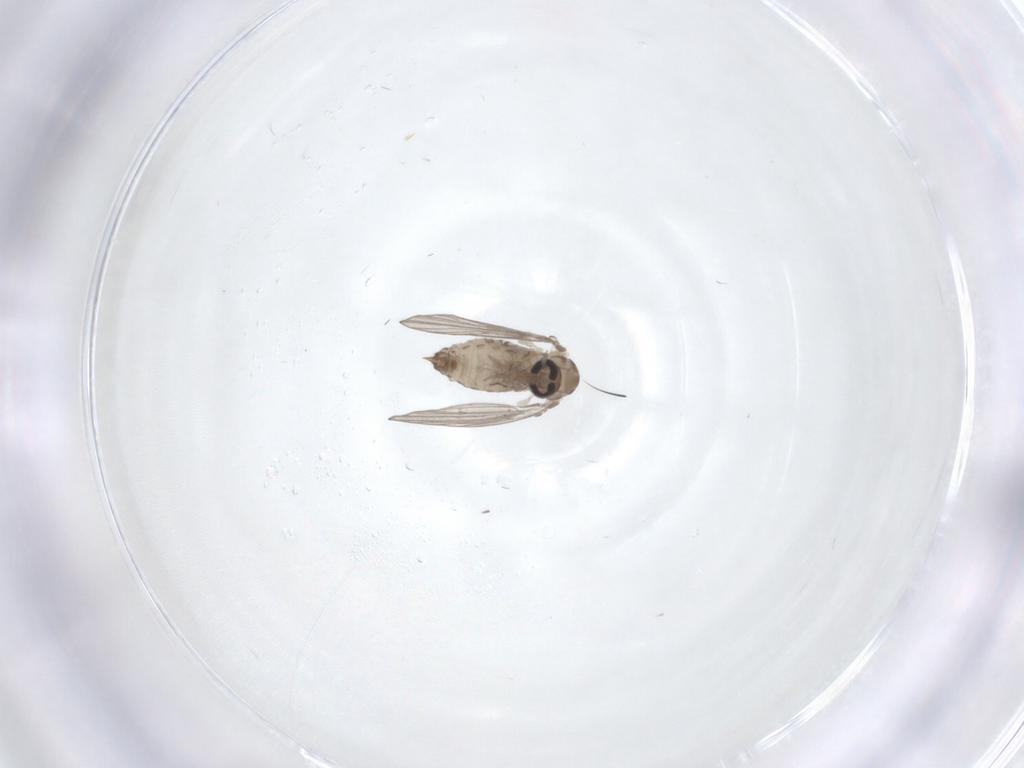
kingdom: Animalia
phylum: Arthropoda
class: Insecta
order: Diptera
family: Psychodidae
